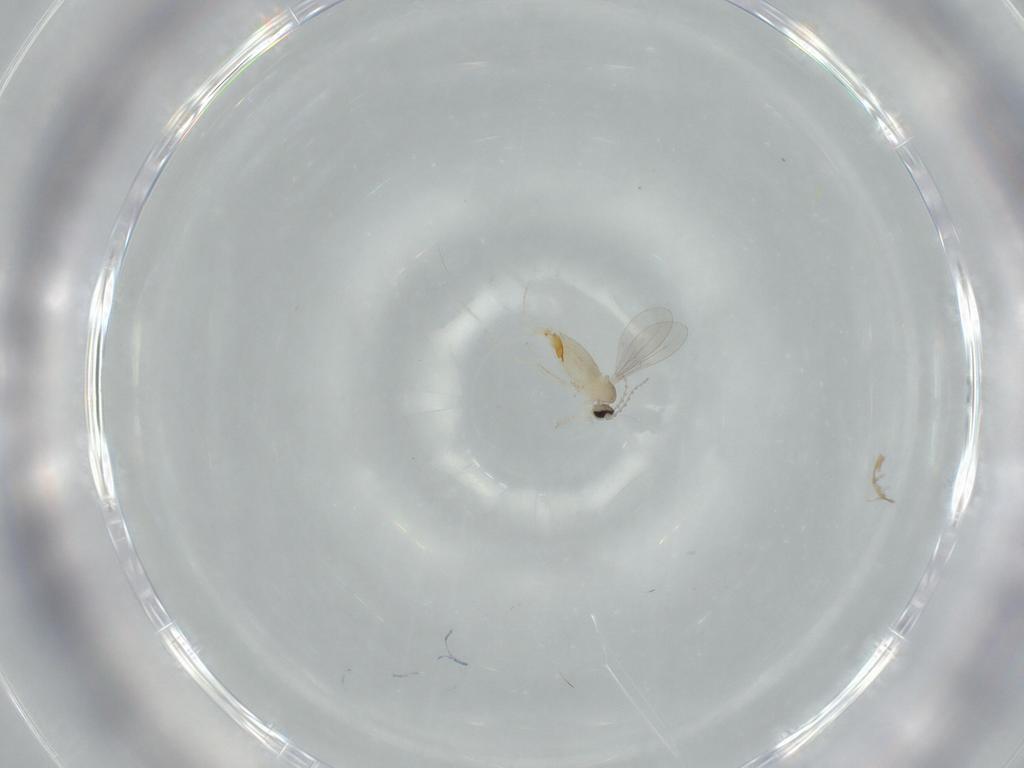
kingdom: Animalia
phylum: Arthropoda
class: Insecta
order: Diptera
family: Cecidomyiidae
